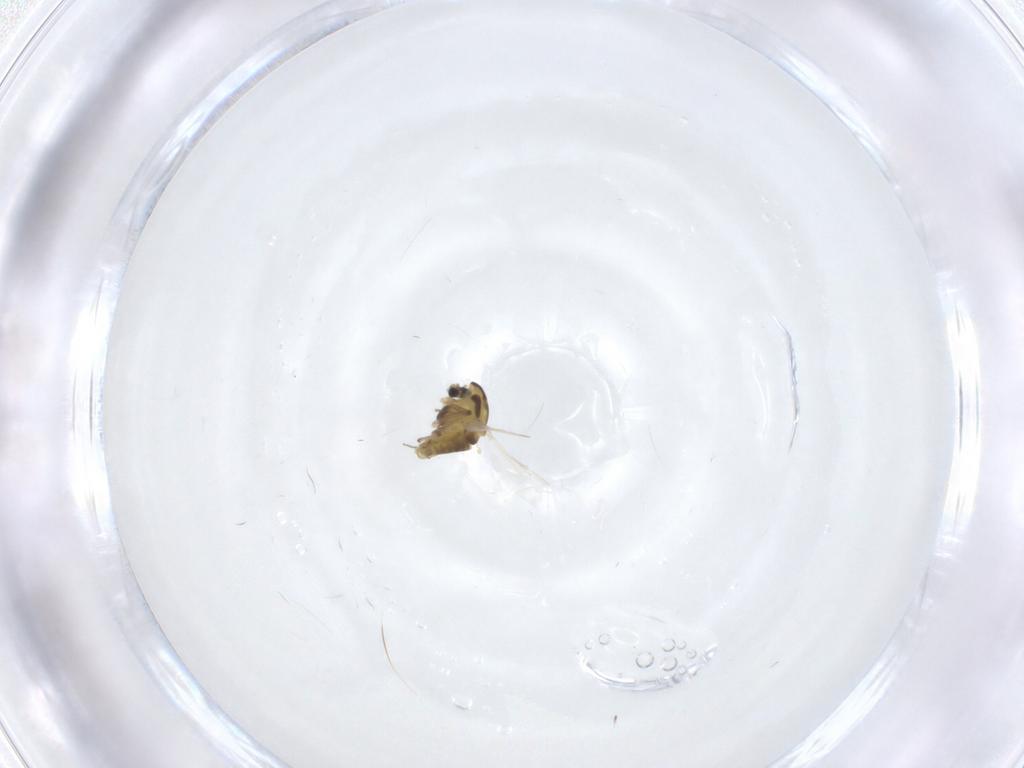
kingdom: Animalia
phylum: Arthropoda
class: Insecta
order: Diptera
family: Chironomidae
